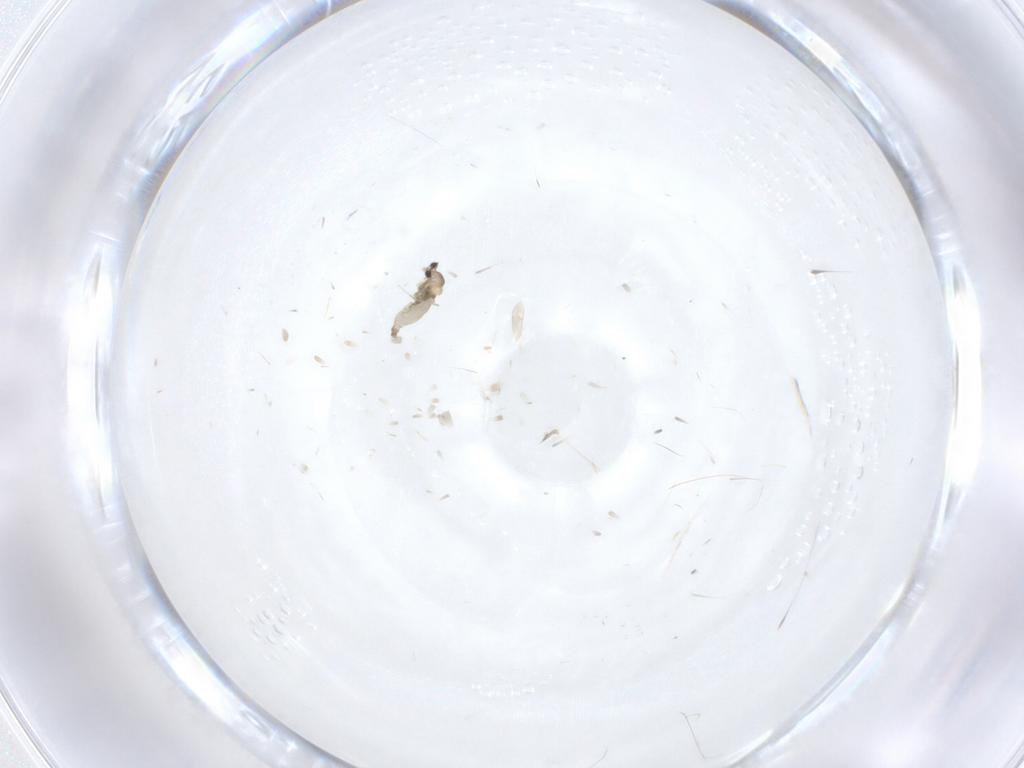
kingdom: Animalia
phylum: Arthropoda
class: Insecta
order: Diptera
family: Cecidomyiidae
